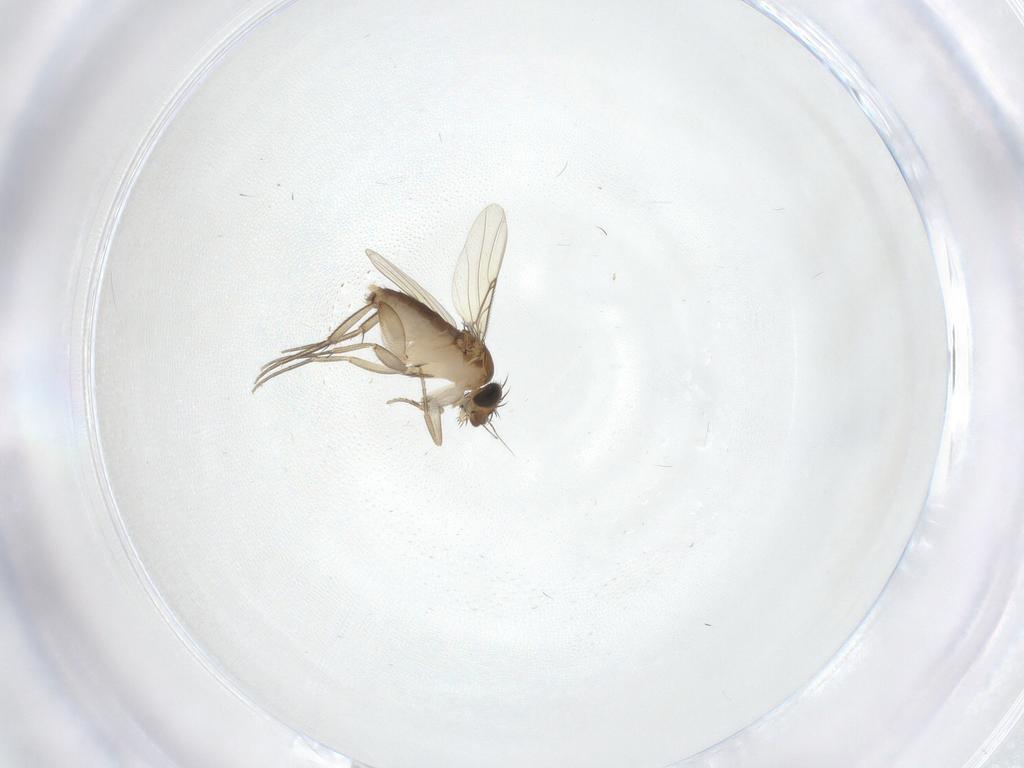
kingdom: Animalia
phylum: Arthropoda
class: Insecta
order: Diptera
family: Phoridae
